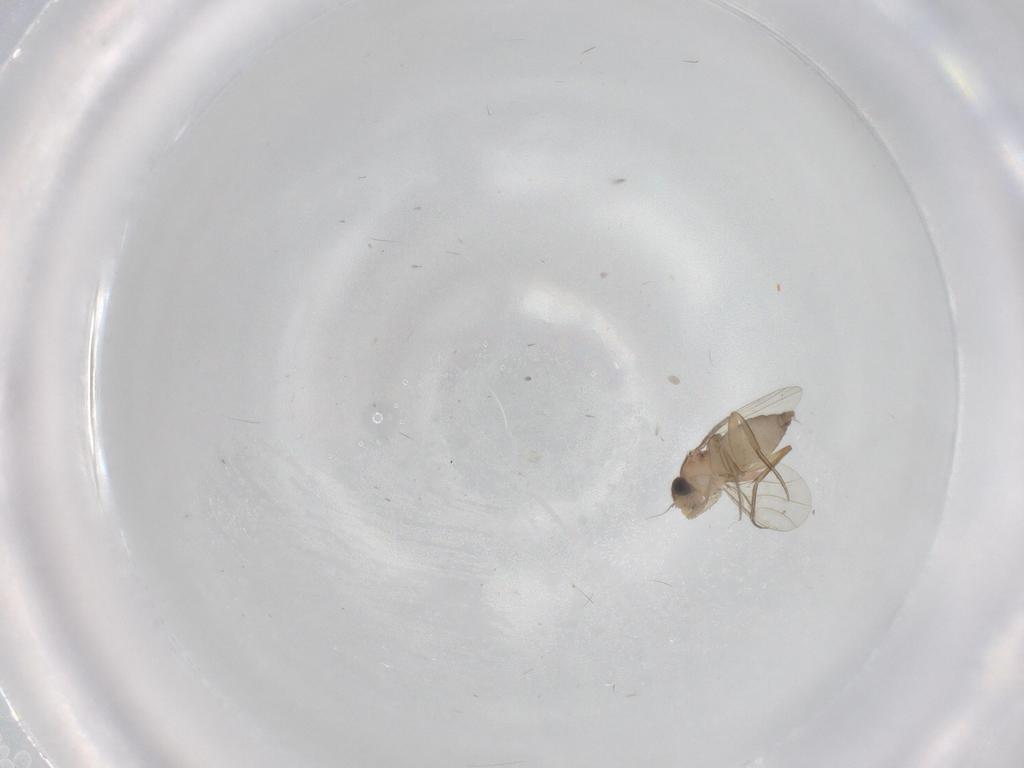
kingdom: Animalia
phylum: Arthropoda
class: Insecta
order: Diptera
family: Phoridae
